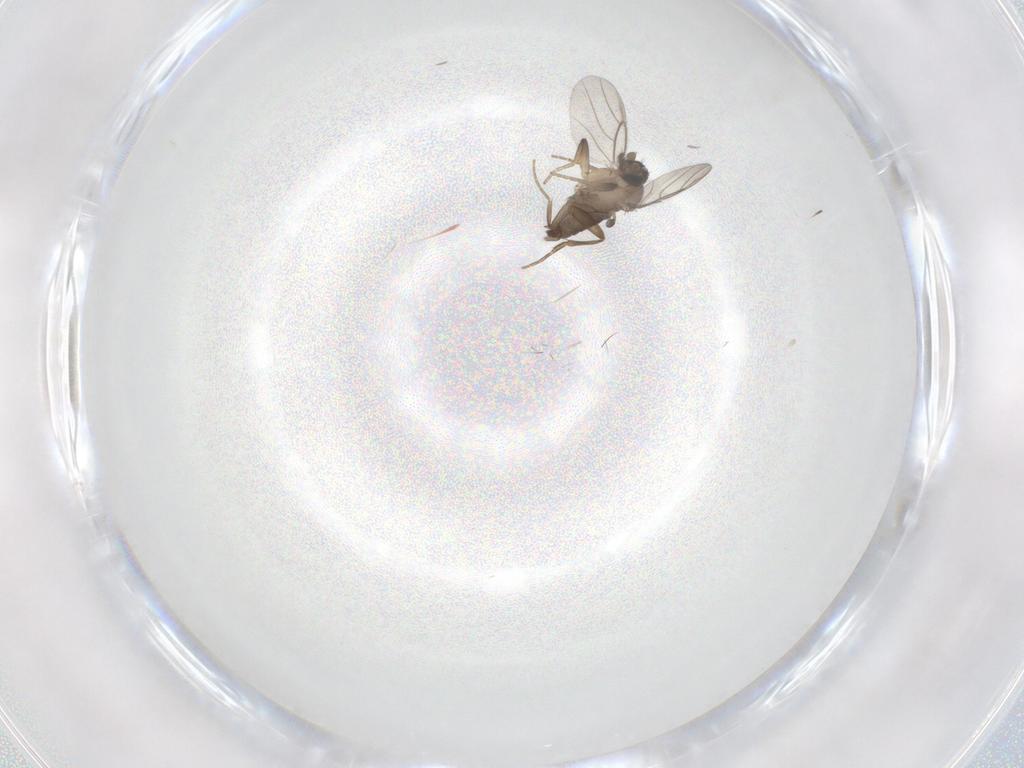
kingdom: Animalia
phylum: Arthropoda
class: Insecta
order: Diptera
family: Phoridae
